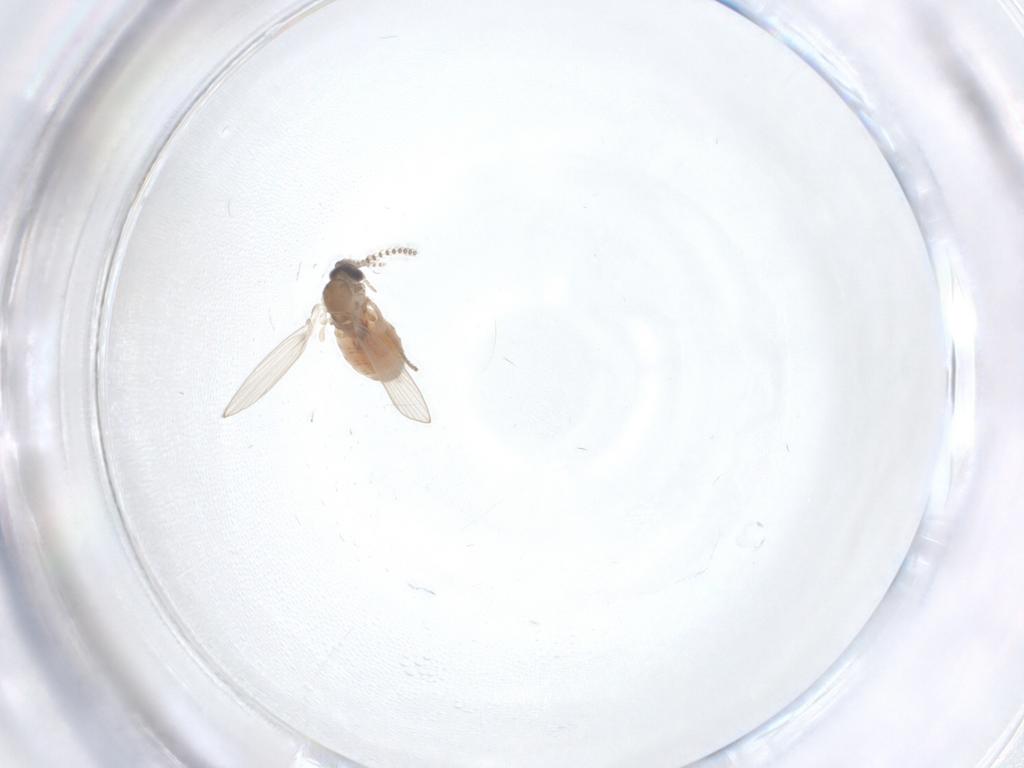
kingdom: Animalia
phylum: Arthropoda
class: Insecta
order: Diptera
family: Psychodidae
